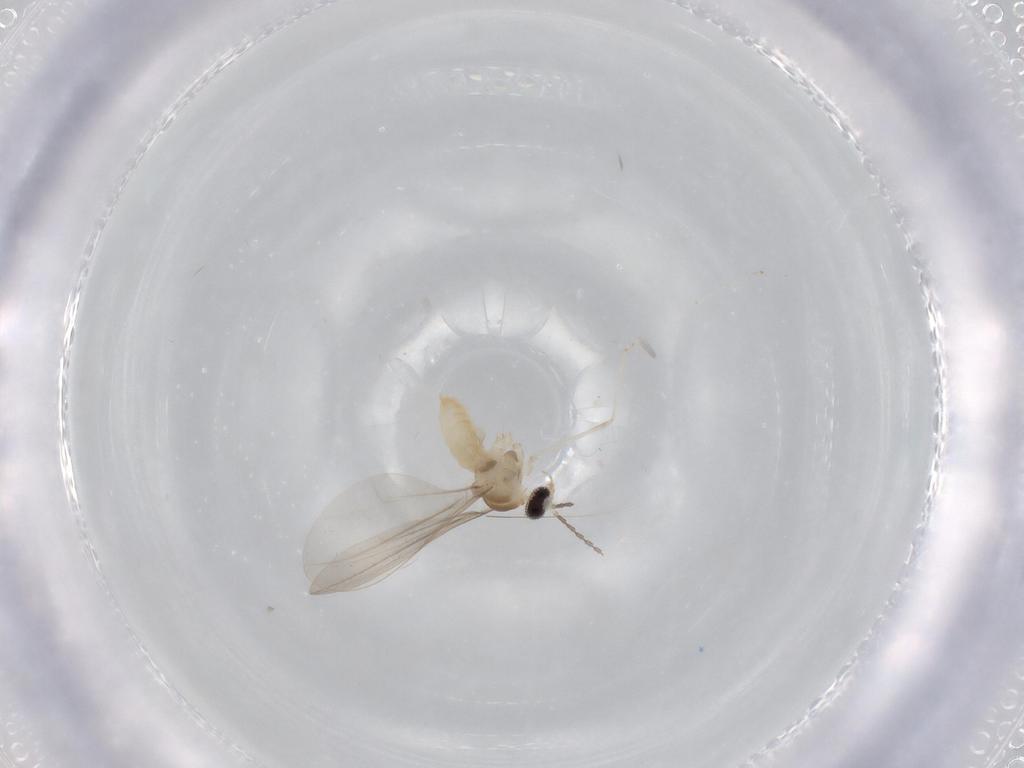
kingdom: Animalia
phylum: Arthropoda
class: Insecta
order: Diptera
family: Cecidomyiidae
